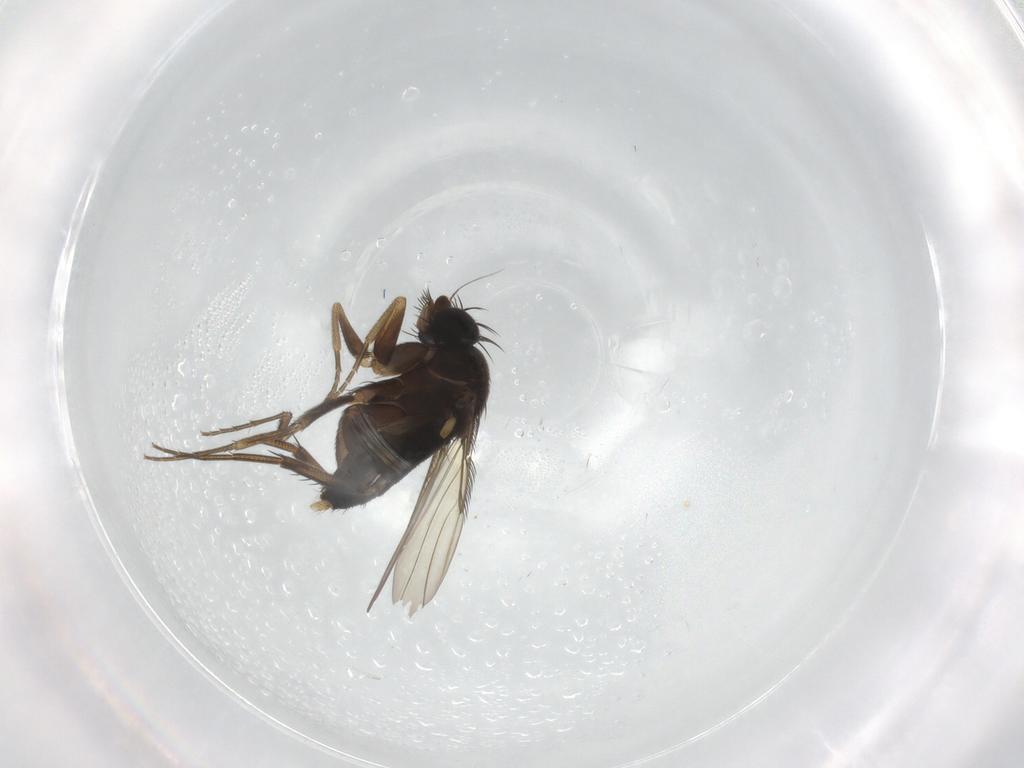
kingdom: Animalia
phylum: Arthropoda
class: Insecta
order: Diptera
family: Phoridae
